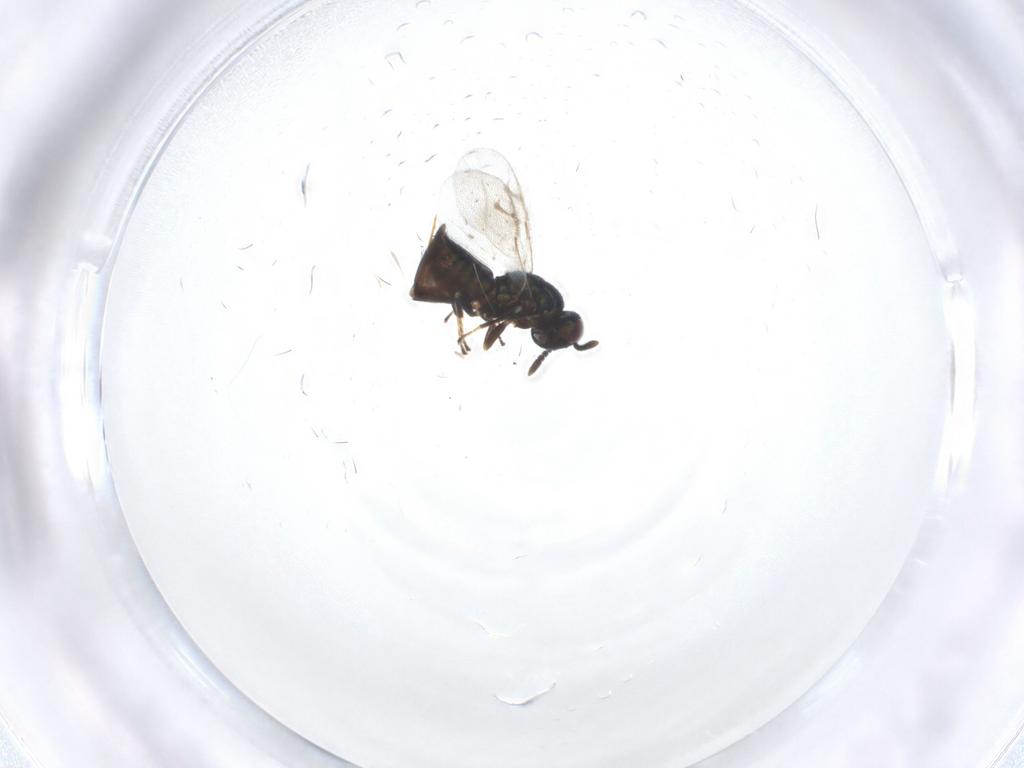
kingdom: Animalia
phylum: Arthropoda
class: Insecta
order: Hymenoptera
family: Pteromalidae
